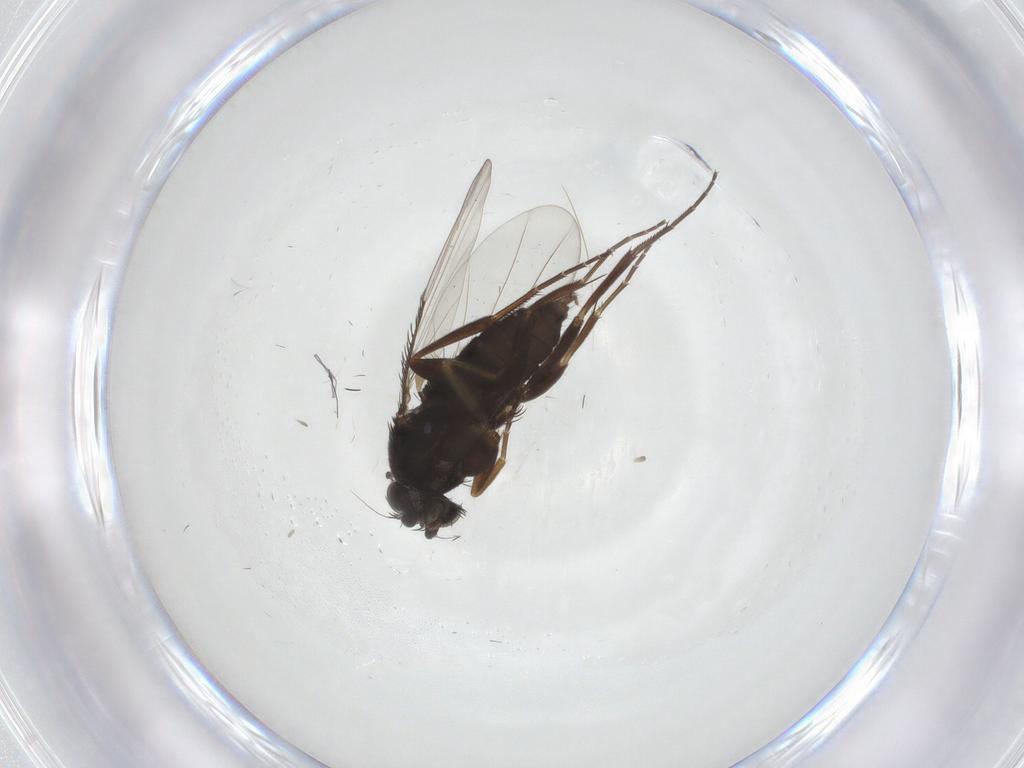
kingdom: Animalia
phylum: Arthropoda
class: Insecta
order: Diptera
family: Phoridae
